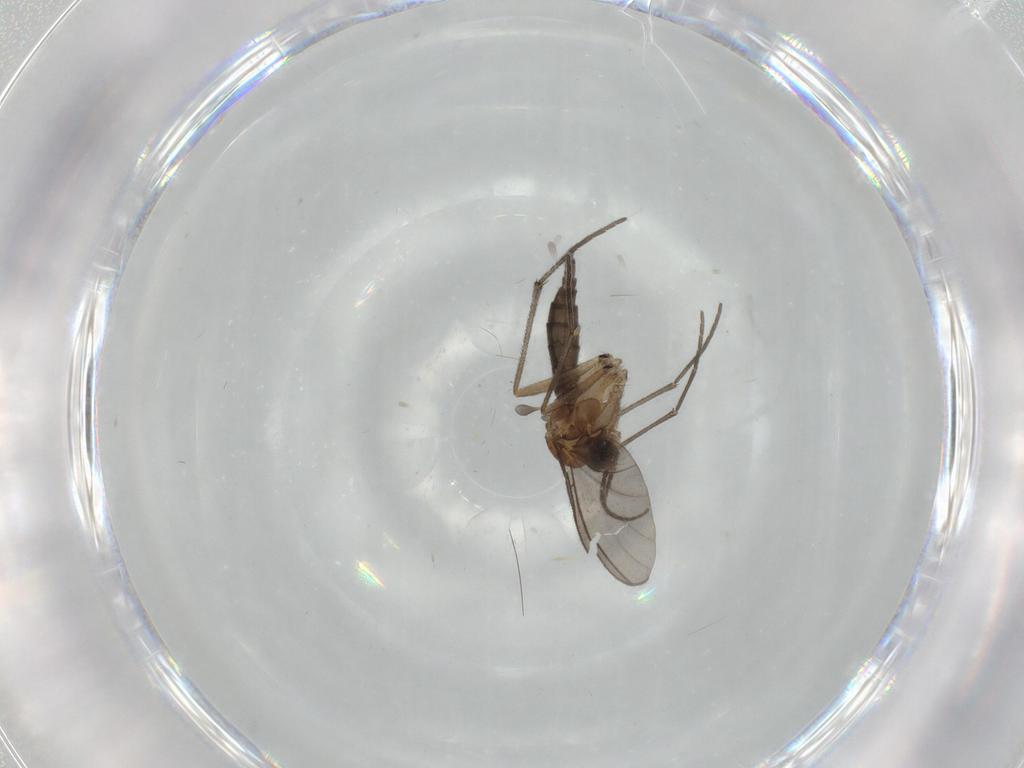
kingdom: Animalia
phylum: Arthropoda
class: Insecta
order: Diptera
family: Sciaridae
